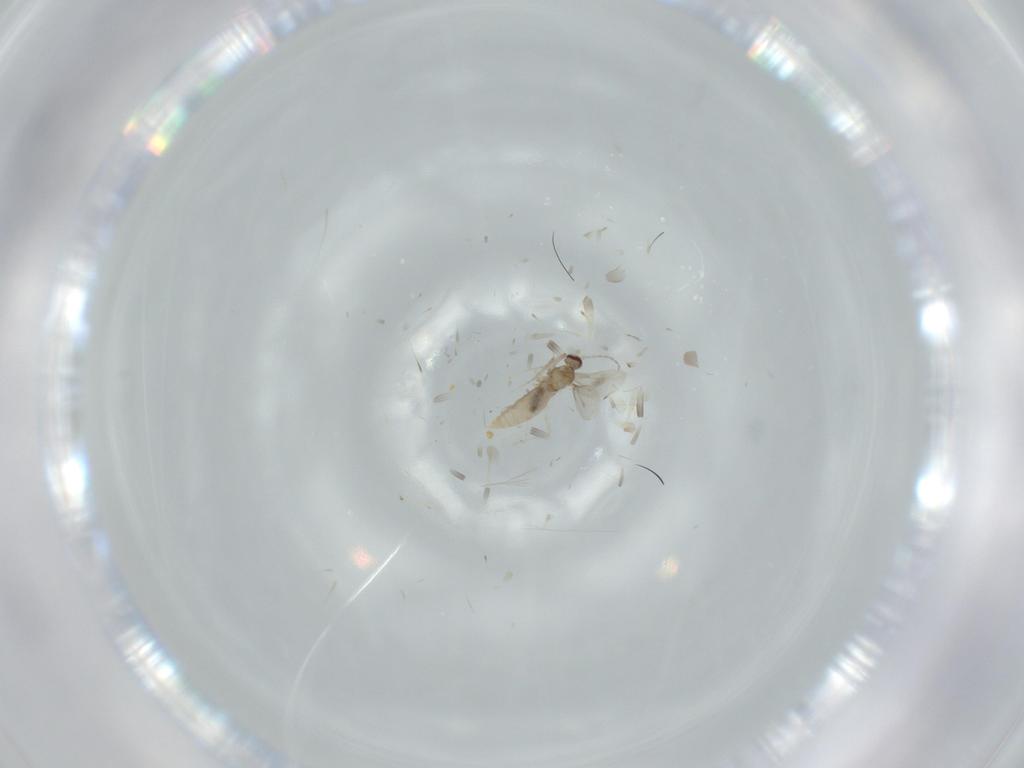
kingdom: Animalia
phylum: Arthropoda
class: Insecta
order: Diptera
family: Cecidomyiidae
